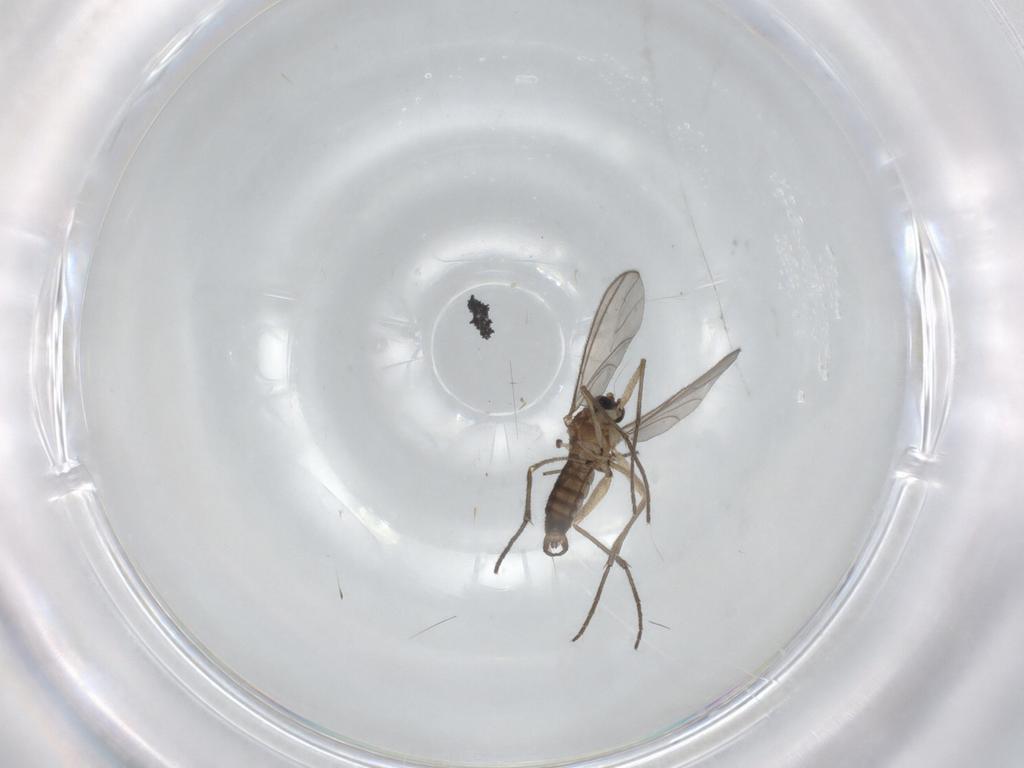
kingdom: Animalia
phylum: Arthropoda
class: Insecta
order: Diptera
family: Sciaridae
